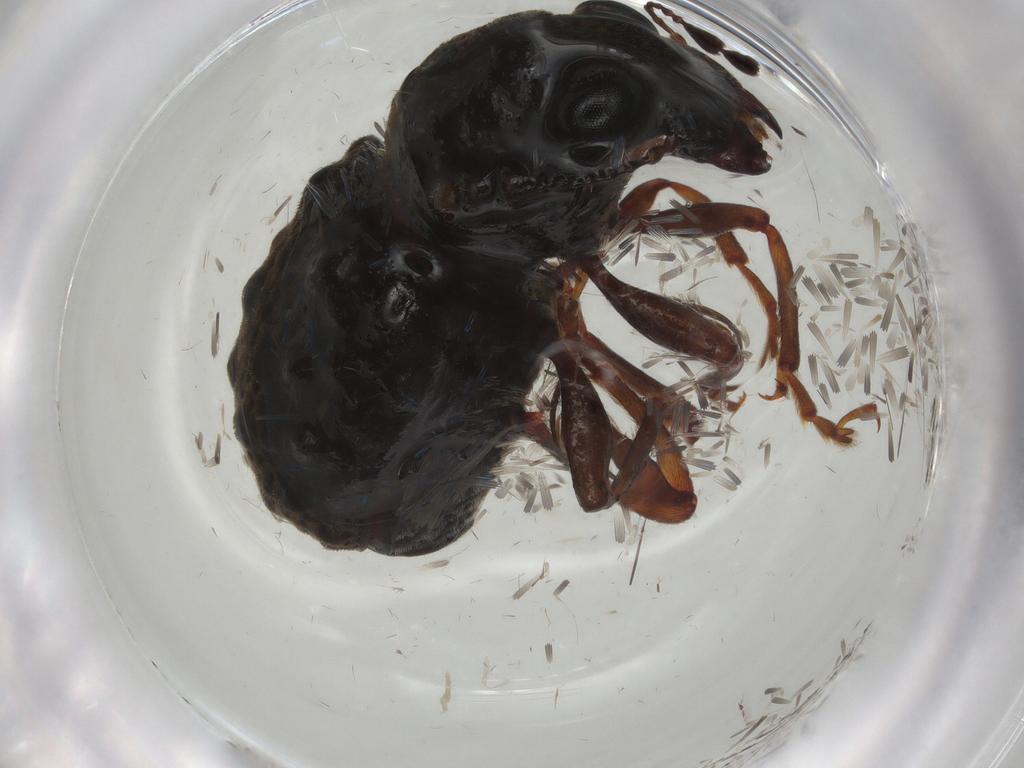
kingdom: Animalia
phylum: Arthropoda
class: Insecta
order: Coleoptera
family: Anthribidae
